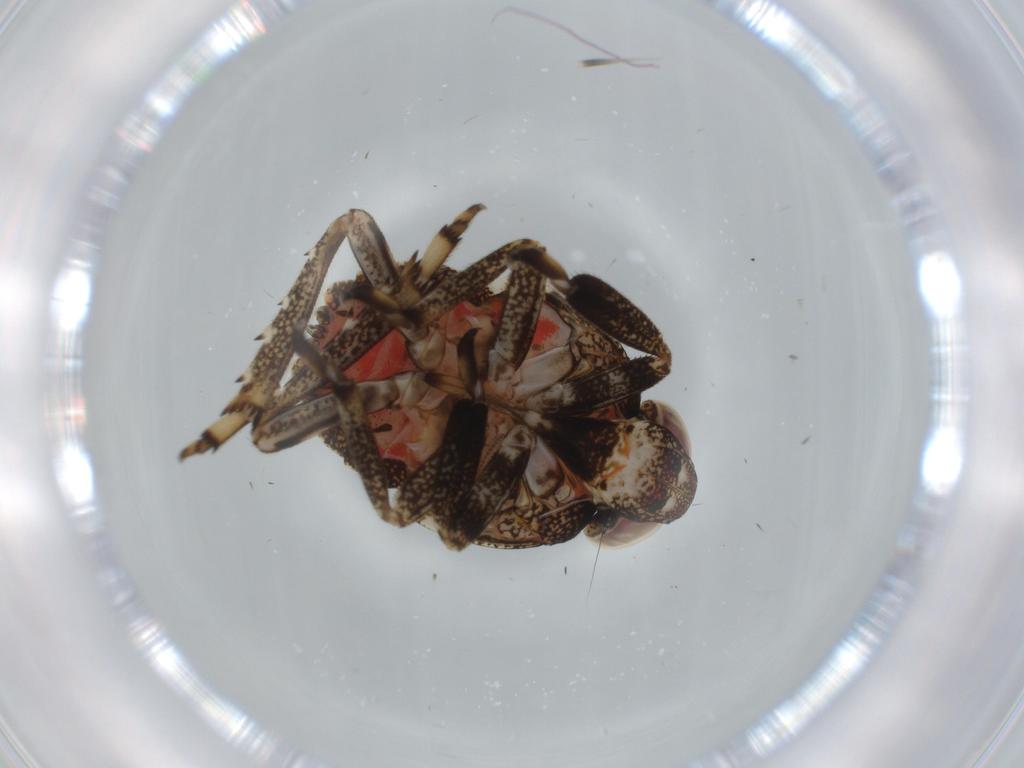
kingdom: Animalia
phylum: Arthropoda
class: Insecta
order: Hemiptera
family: Issidae
